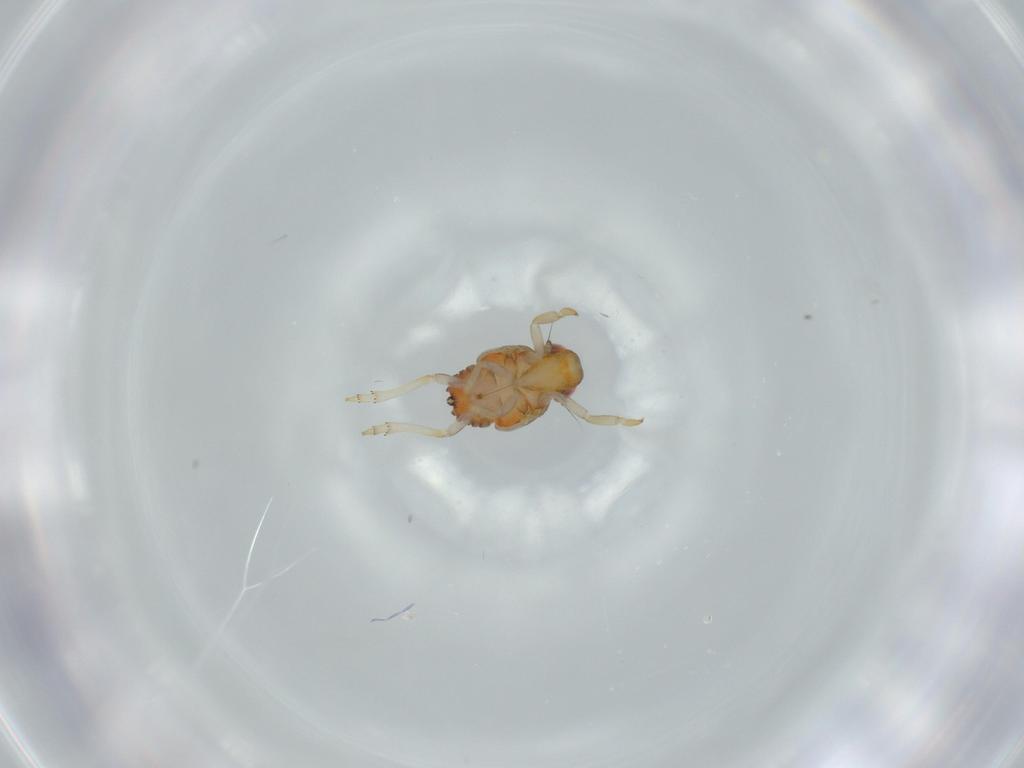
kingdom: Animalia
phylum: Arthropoda
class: Insecta
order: Hemiptera
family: Issidae
